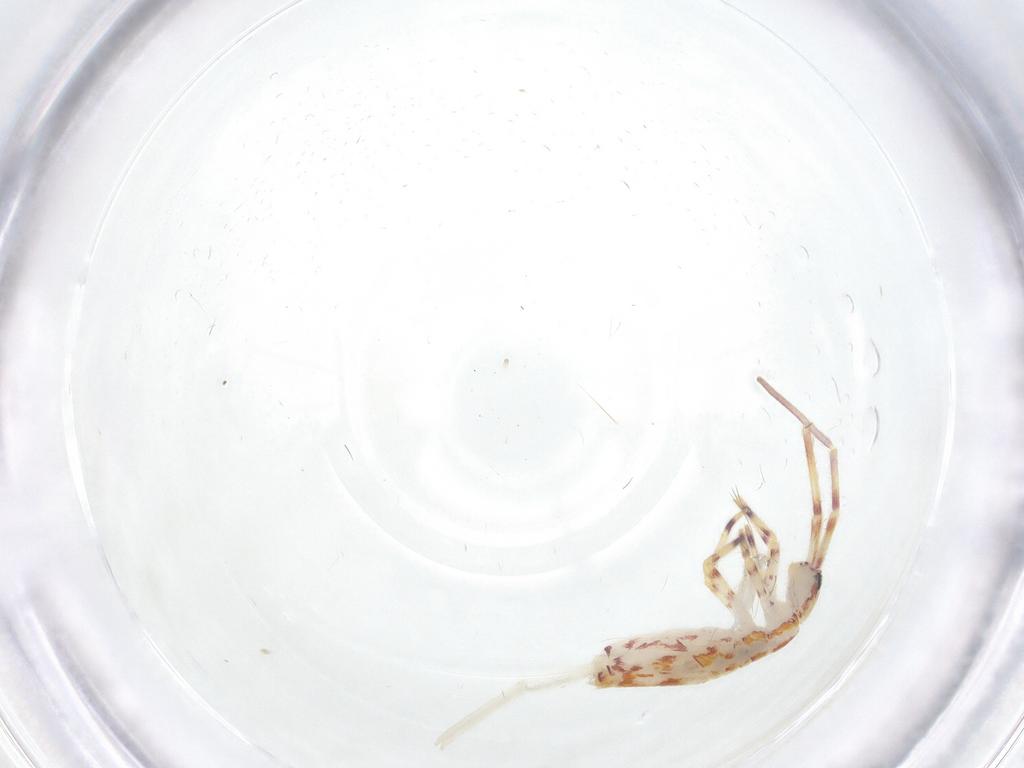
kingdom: Animalia
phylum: Arthropoda
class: Collembola
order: Entomobryomorpha
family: Entomobryidae
